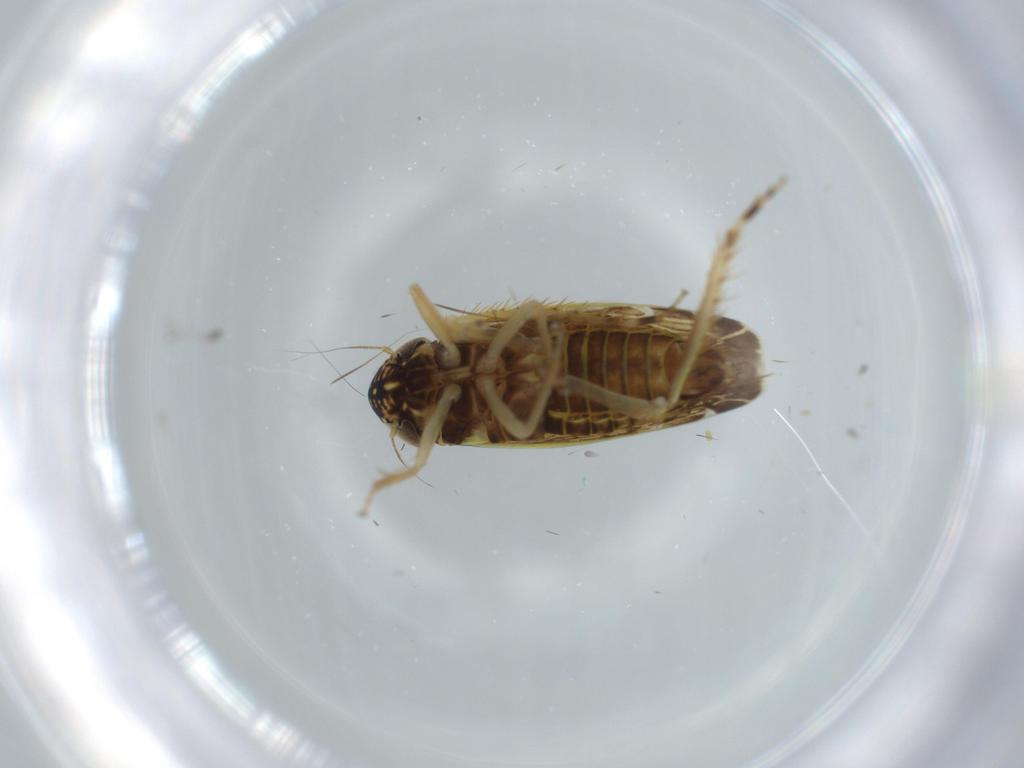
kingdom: Animalia
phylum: Arthropoda
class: Insecta
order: Hemiptera
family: Cicadellidae
